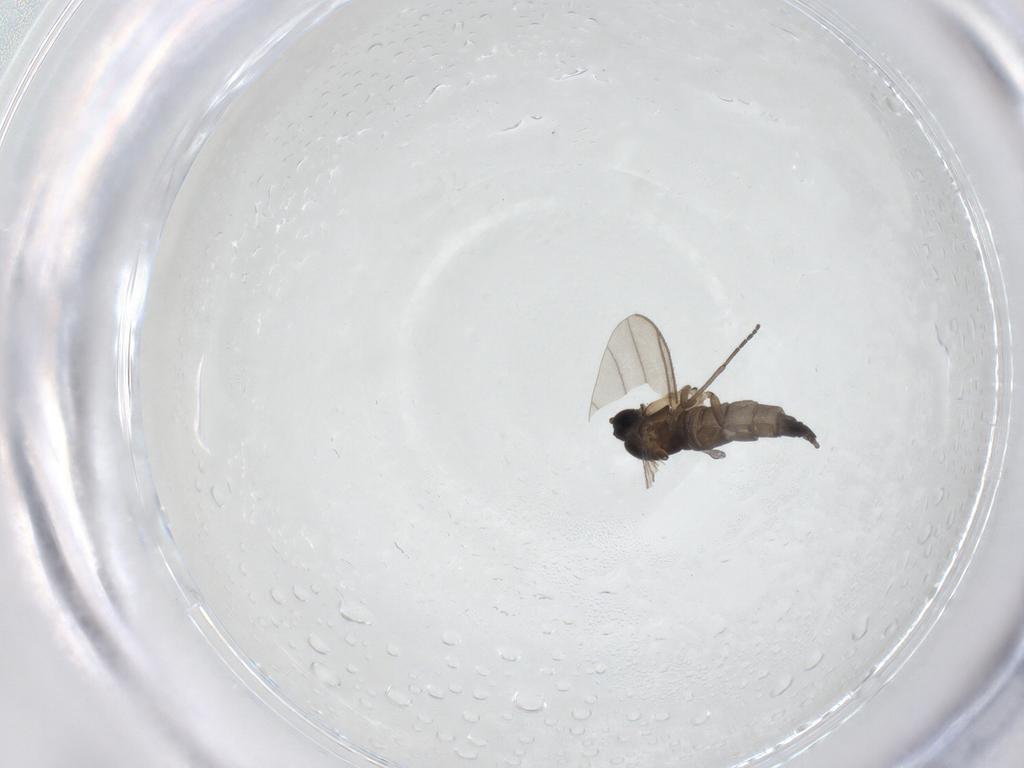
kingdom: Animalia
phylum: Arthropoda
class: Insecta
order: Diptera
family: Sciaridae
